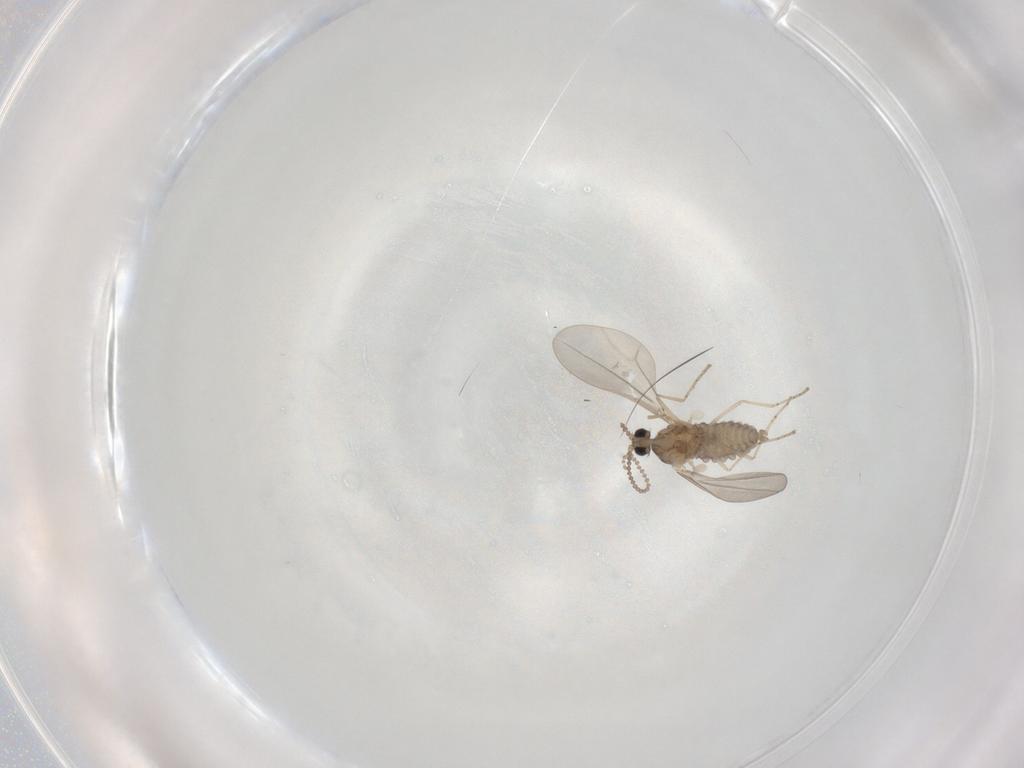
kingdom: Animalia
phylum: Arthropoda
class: Insecta
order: Diptera
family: Cecidomyiidae
